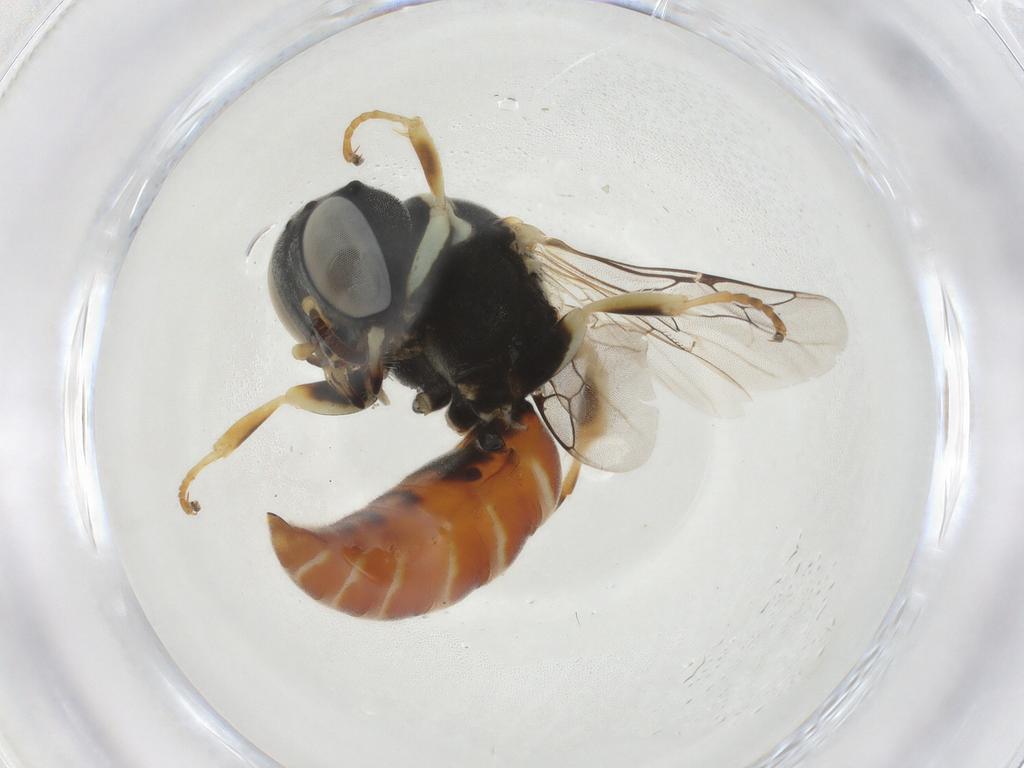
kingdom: Animalia
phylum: Arthropoda
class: Insecta
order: Hymenoptera
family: Crabronidae
